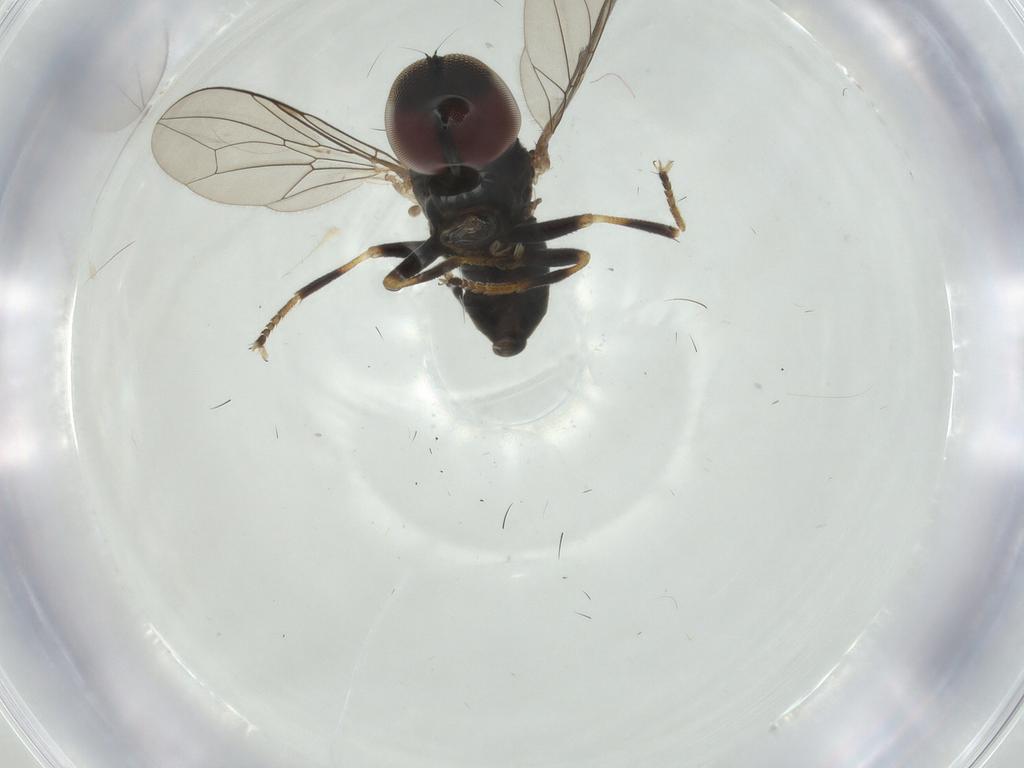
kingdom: Animalia
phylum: Arthropoda
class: Insecta
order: Diptera
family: Pipunculidae
